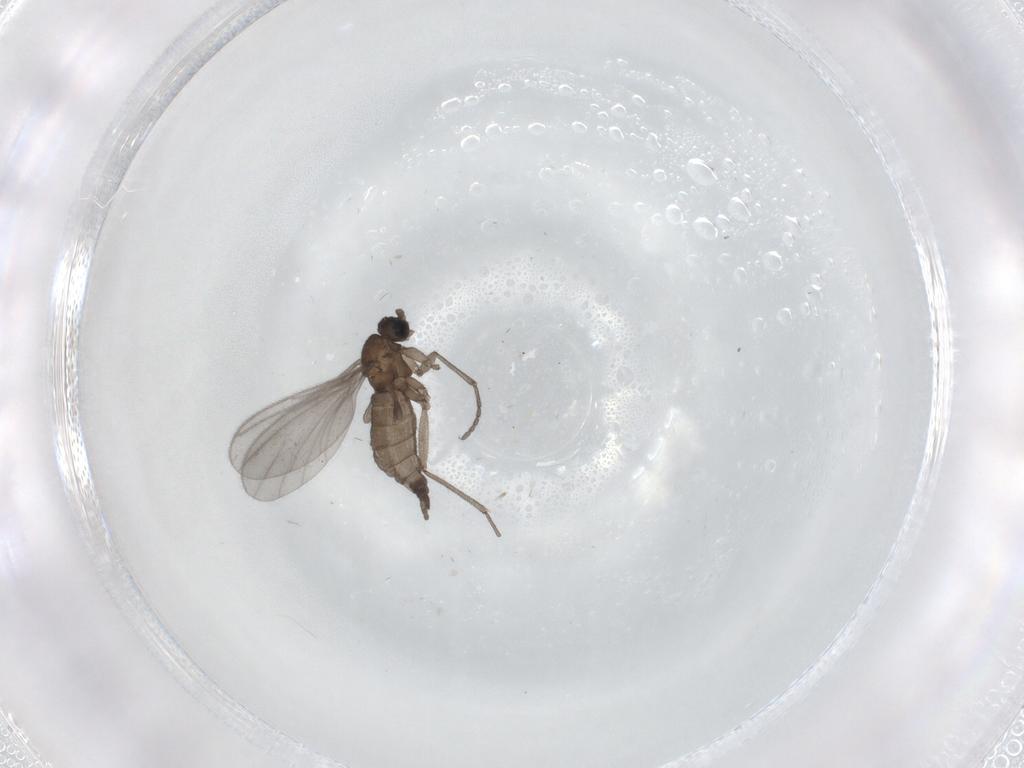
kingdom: Animalia
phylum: Arthropoda
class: Insecta
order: Diptera
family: Sciaridae
